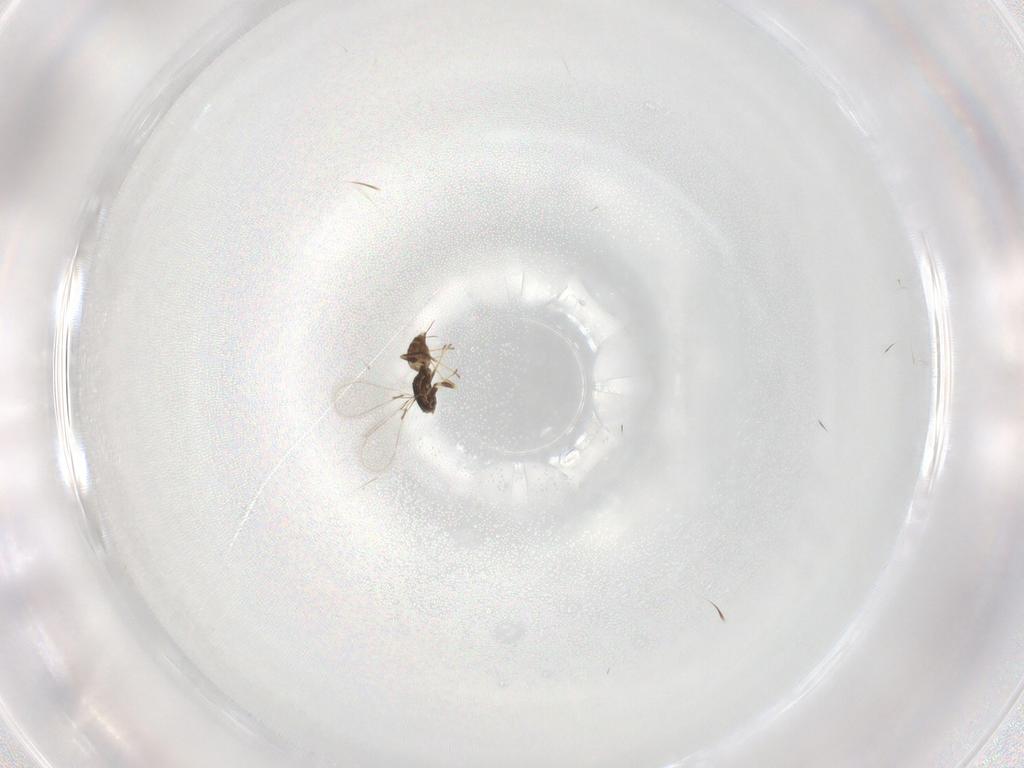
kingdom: Animalia
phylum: Arthropoda
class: Insecta
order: Hymenoptera
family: Mymaridae
